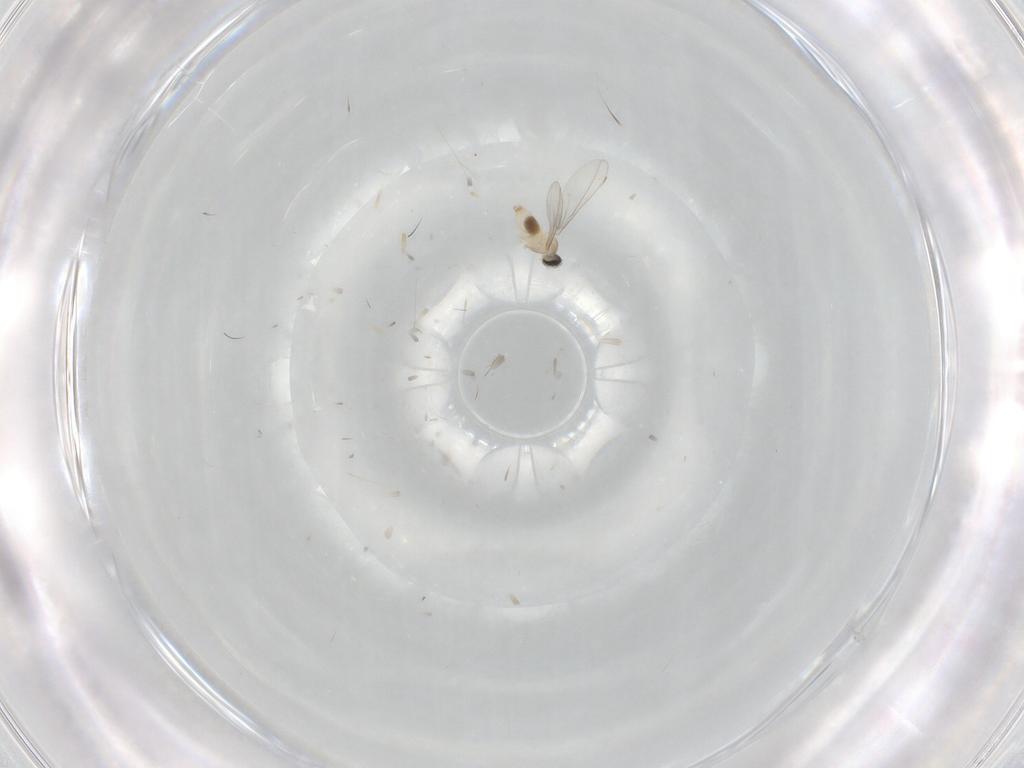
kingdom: Animalia
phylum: Arthropoda
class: Insecta
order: Diptera
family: Cecidomyiidae
